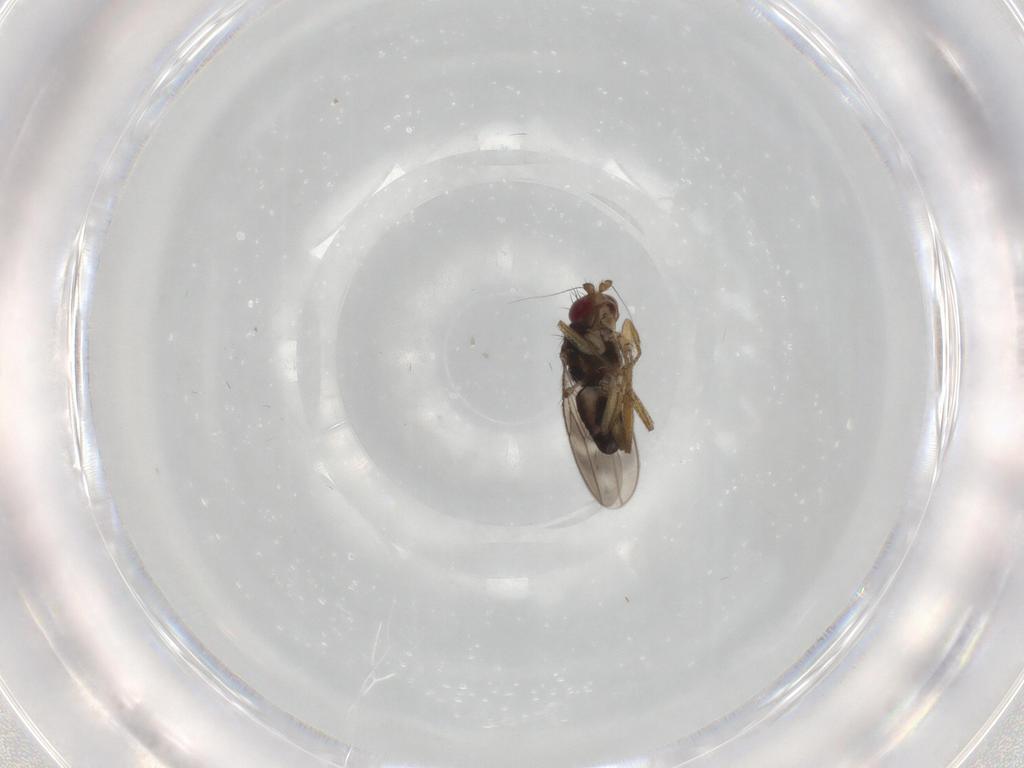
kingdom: Animalia
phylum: Arthropoda
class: Insecta
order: Diptera
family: Sphaeroceridae
